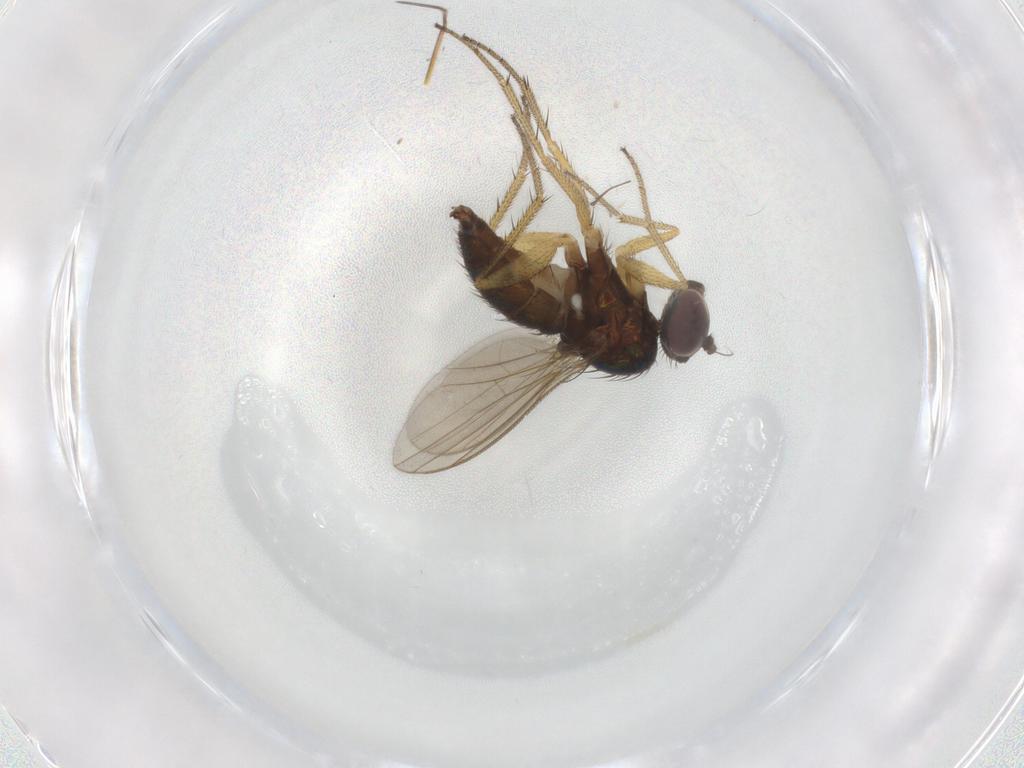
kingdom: Animalia
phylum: Arthropoda
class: Insecta
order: Diptera
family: Dolichopodidae
